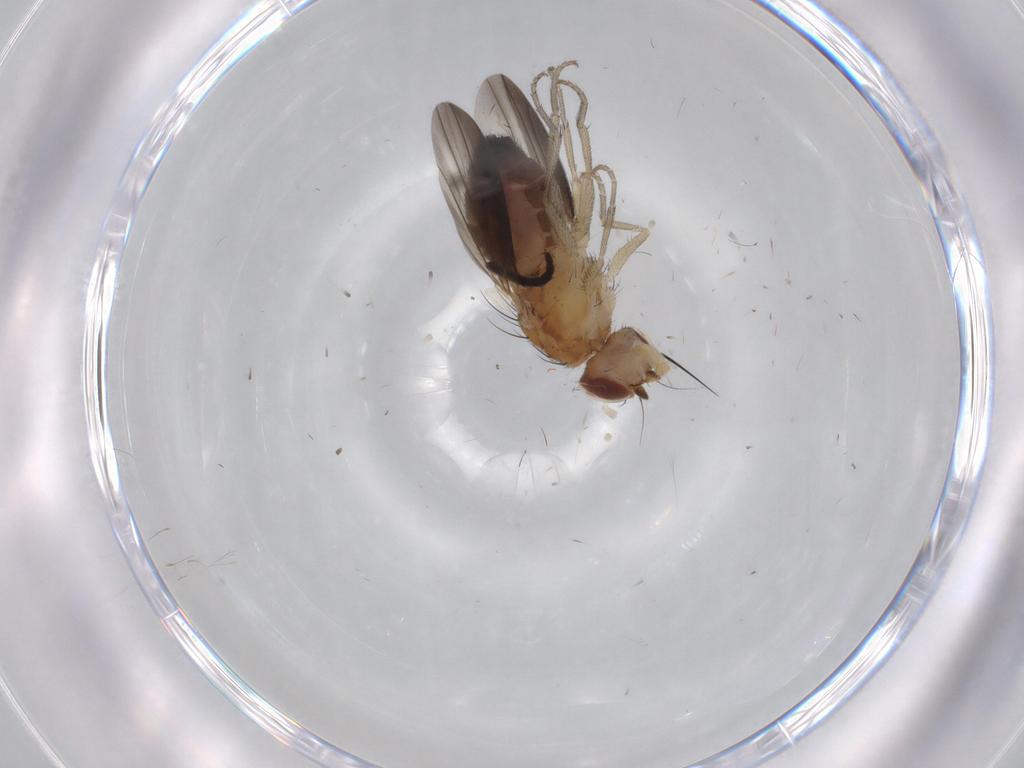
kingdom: Animalia
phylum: Arthropoda
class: Insecta
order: Diptera
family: Heleomyzidae
